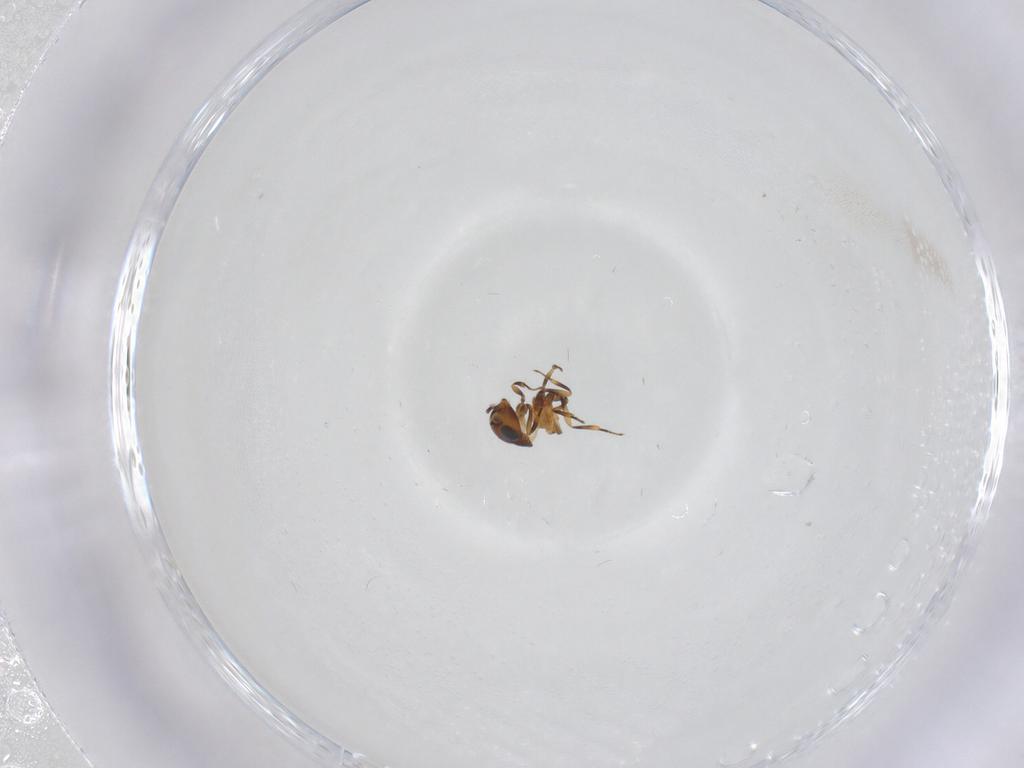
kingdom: Animalia
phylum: Arthropoda
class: Insecta
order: Hymenoptera
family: Scelionidae
